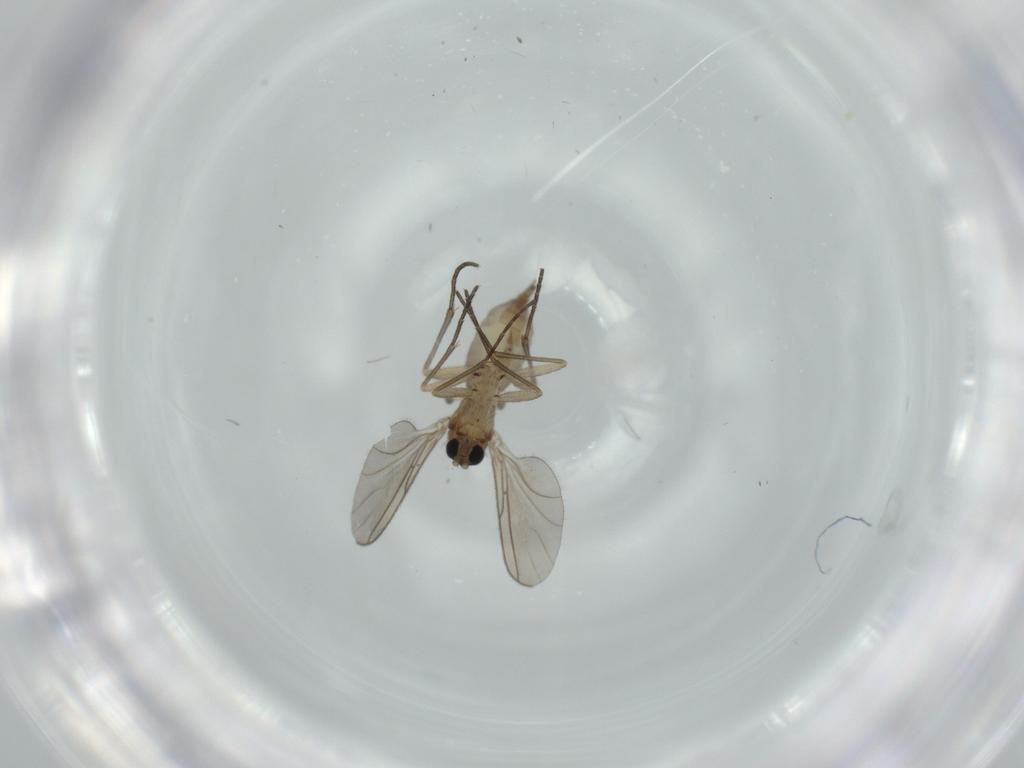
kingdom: Animalia
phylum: Arthropoda
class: Insecta
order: Diptera
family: Sciaridae
